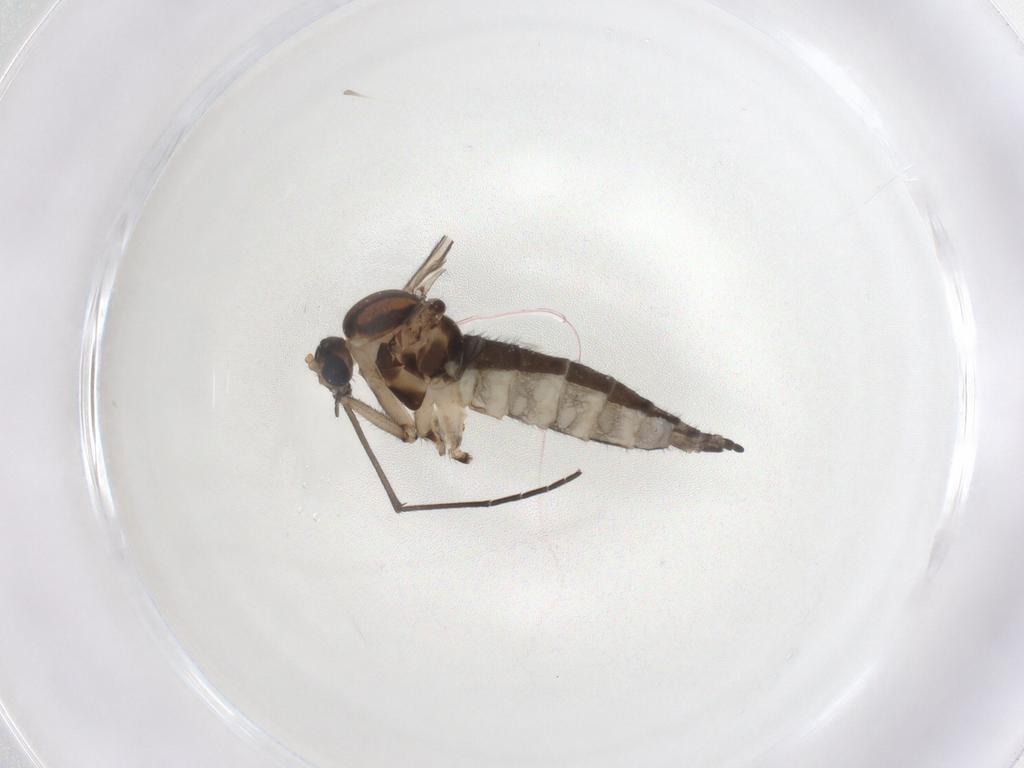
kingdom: Animalia
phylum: Arthropoda
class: Insecta
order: Diptera
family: Sciaridae
